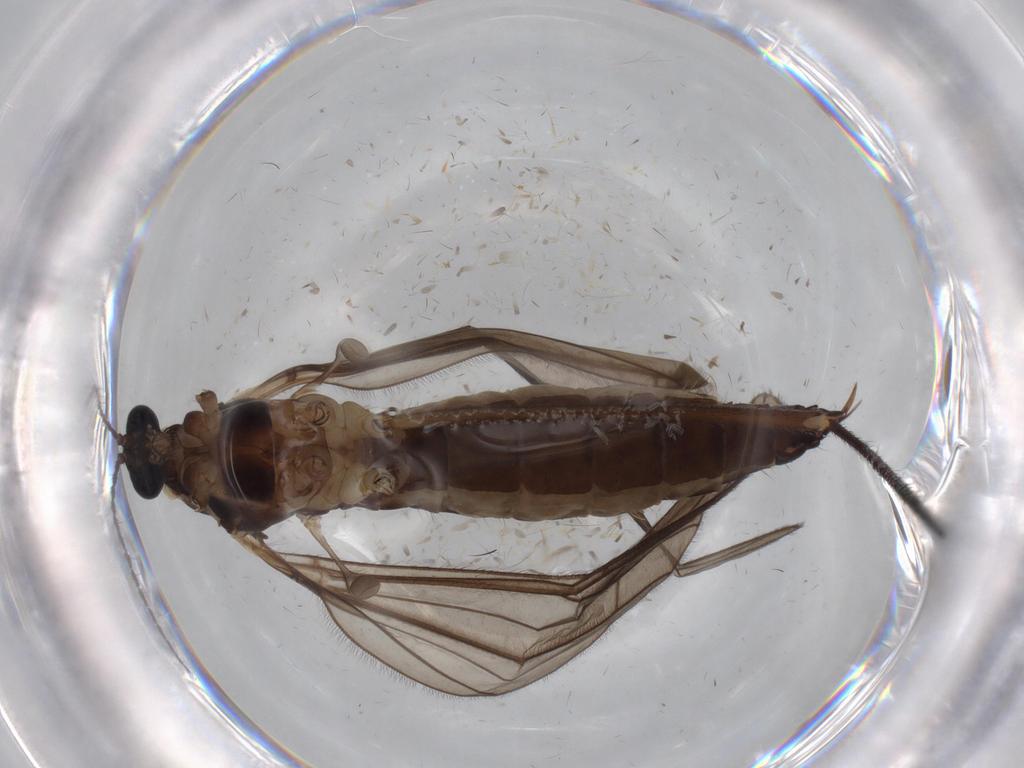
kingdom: Animalia
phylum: Arthropoda
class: Insecta
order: Diptera
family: Limoniidae
